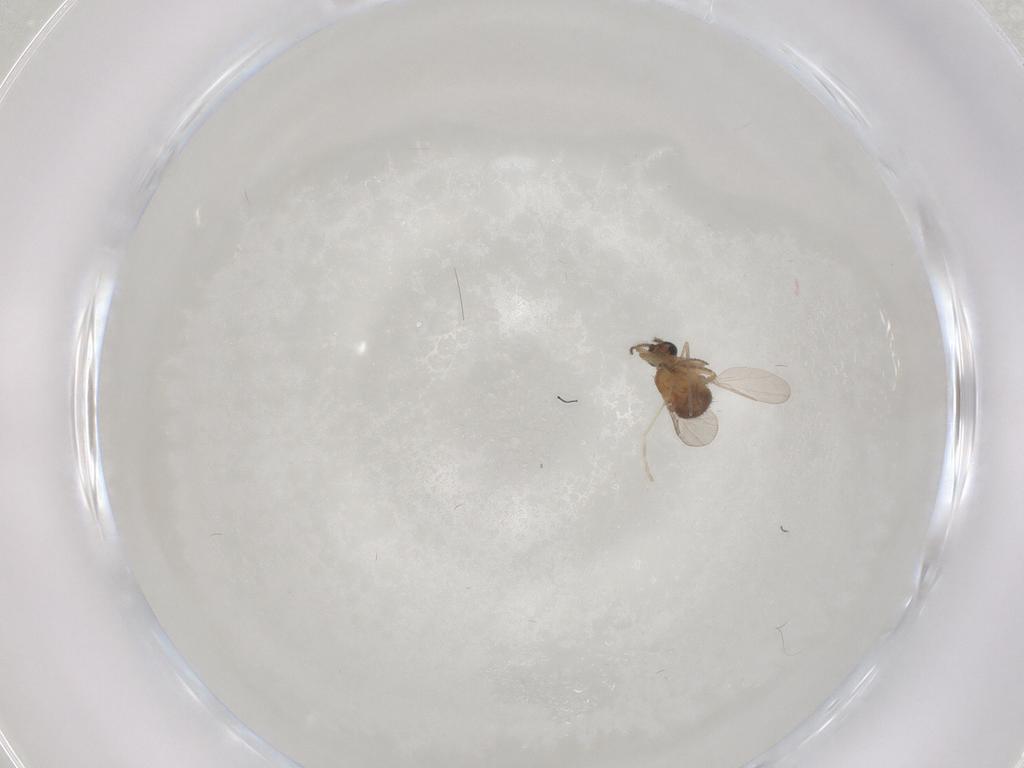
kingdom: Animalia
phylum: Arthropoda
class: Insecta
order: Diptera
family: Ceratopogonidae
